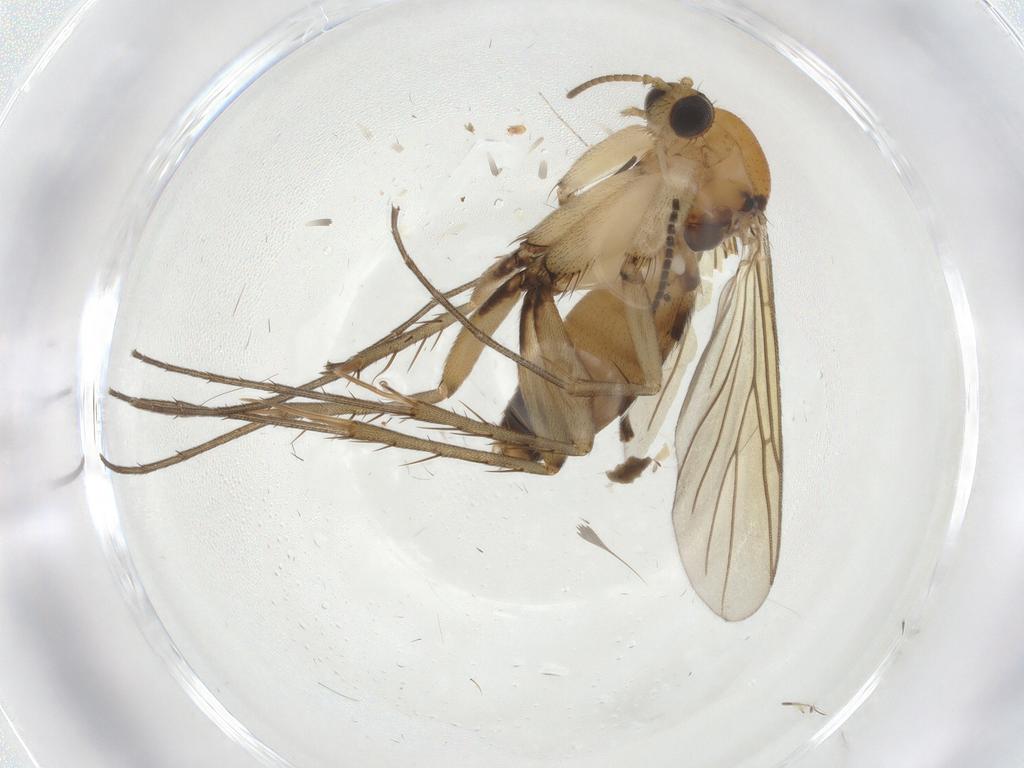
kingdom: Animalia
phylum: Arthropoda
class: Insecta
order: Diptera
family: Mycetophilidae
